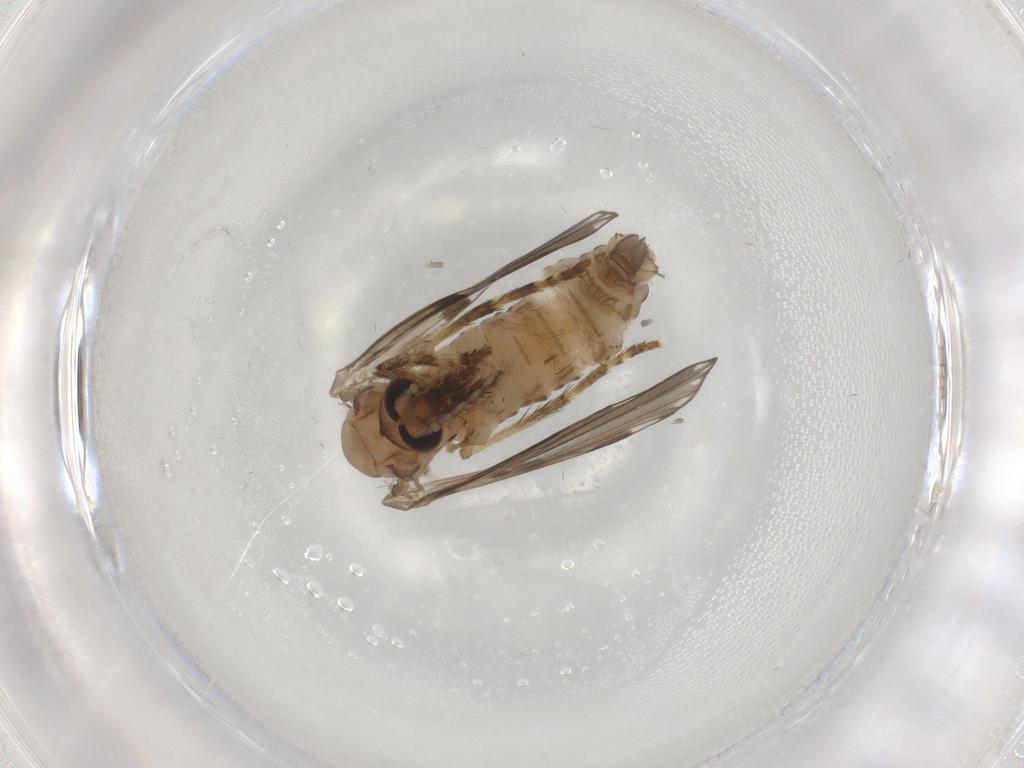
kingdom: Animalia
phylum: Arthropoda
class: Insecta
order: Diptera
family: Psychodidae
